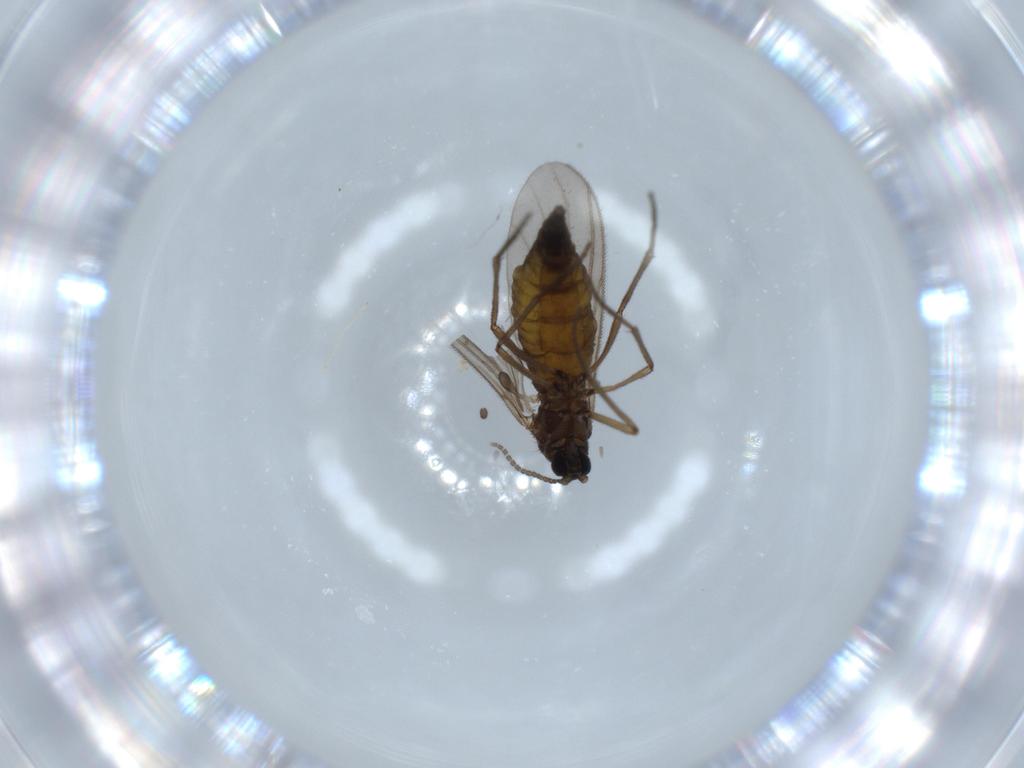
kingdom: Animalia
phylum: Arthropoda
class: Insecta
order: Diptera
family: Sciaridae
